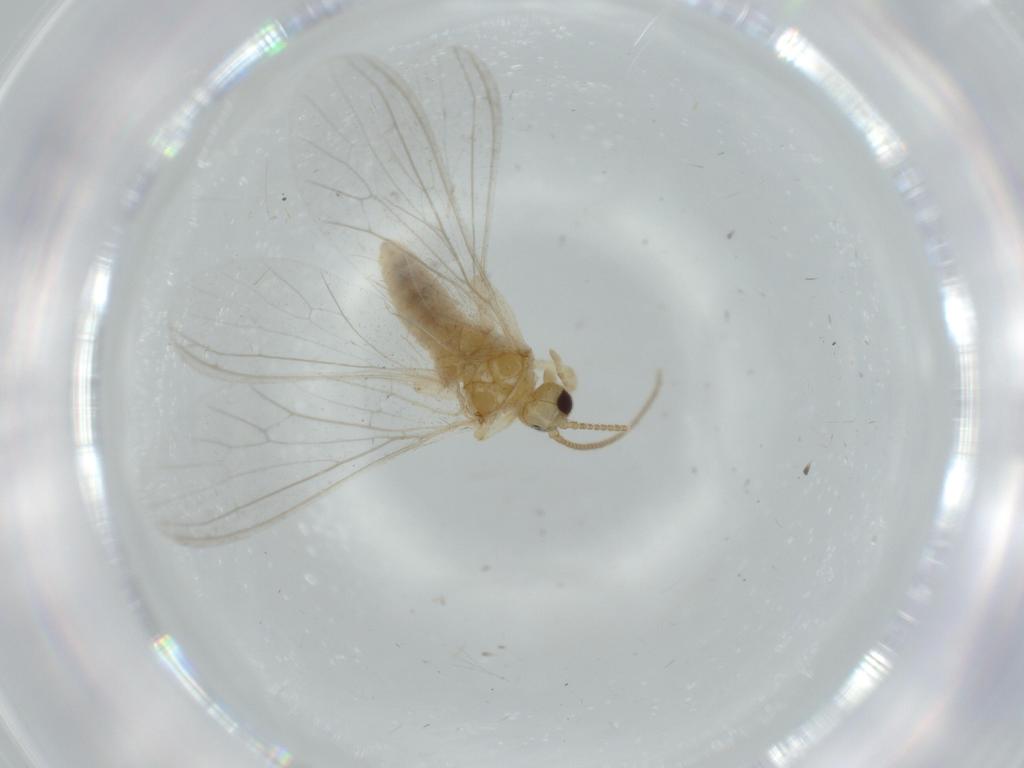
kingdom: Animalia
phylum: Arthropoda
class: Insecta
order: Neuroptera
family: Coniopterygidae
